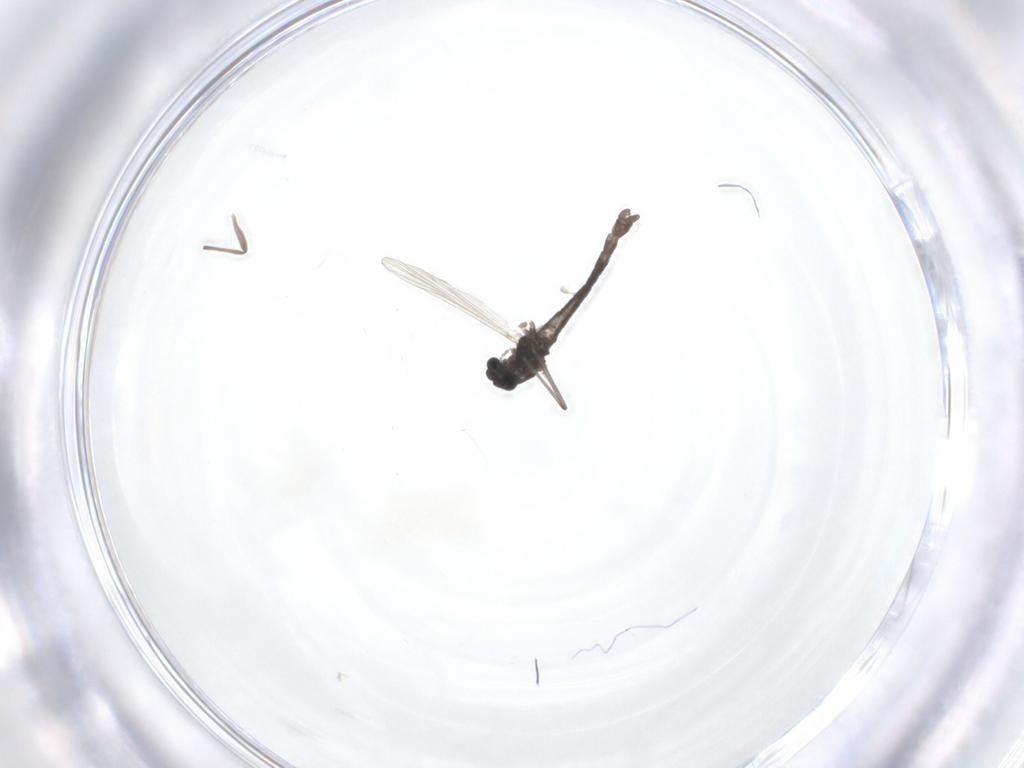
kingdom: Animalia
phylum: Arthropoda
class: Insecta
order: Diptera
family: Chironomidae
